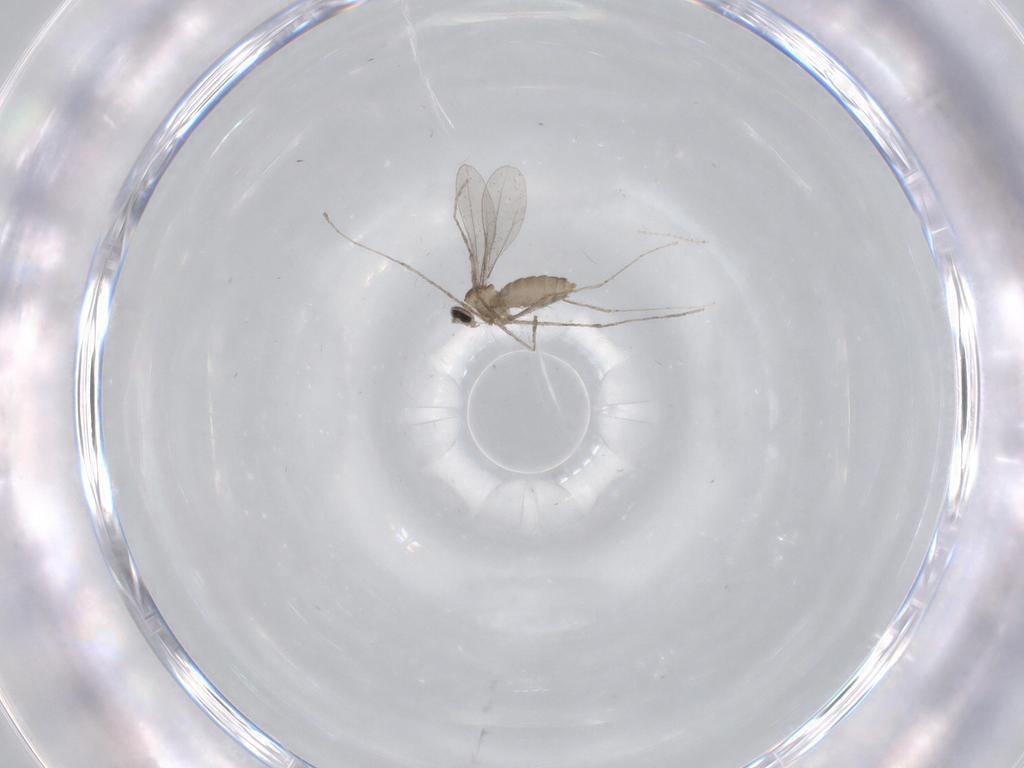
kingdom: Animalia
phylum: Arthropoda
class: Insecta
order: Diptera
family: Cecidomyiidae
